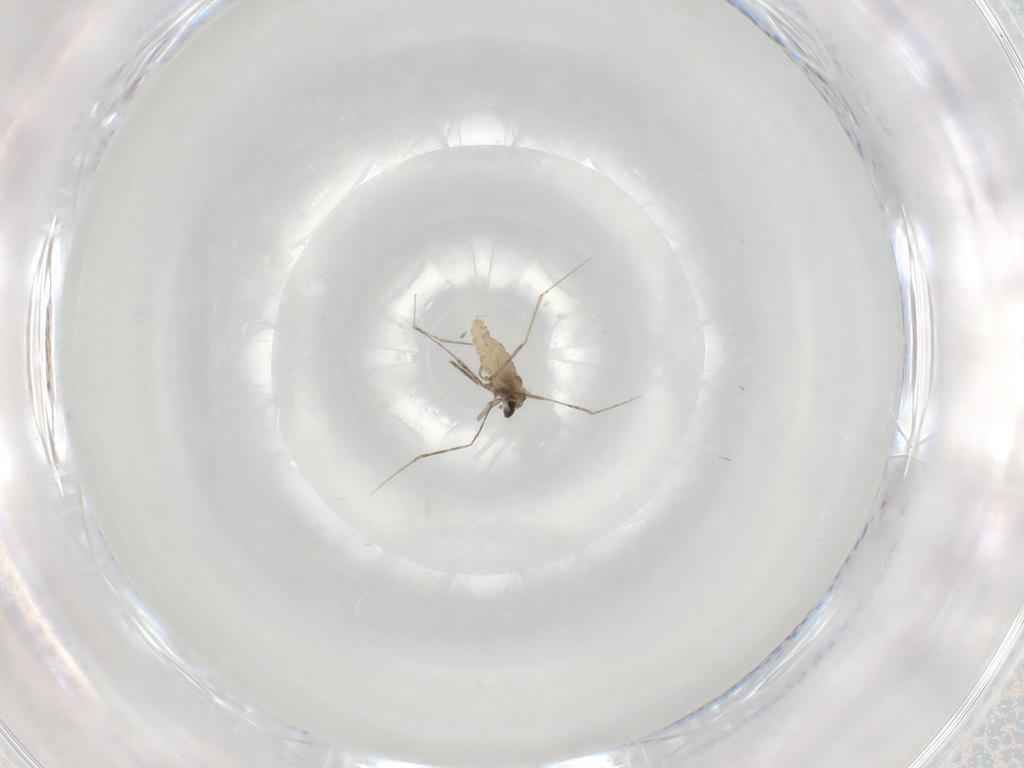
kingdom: Animalia
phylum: Arthropoda
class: Insecta
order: Diptera
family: Cecidomyiidae
